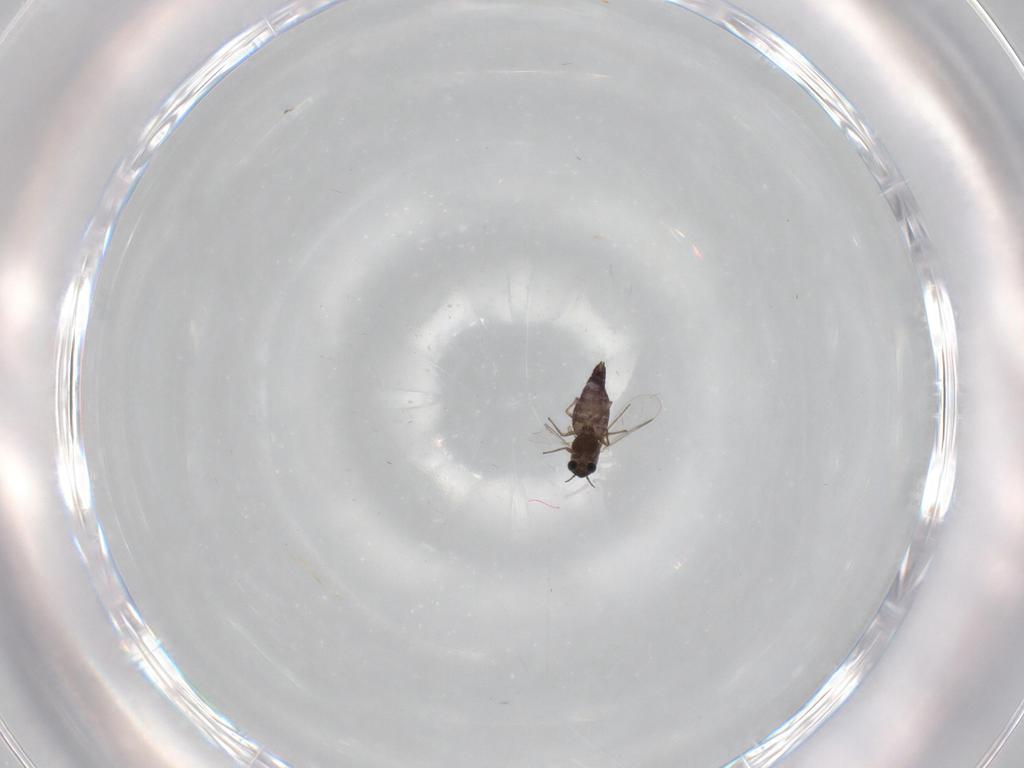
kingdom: Animalia
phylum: Arthropoda
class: Insecta
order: Diptera
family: Chironomidae
